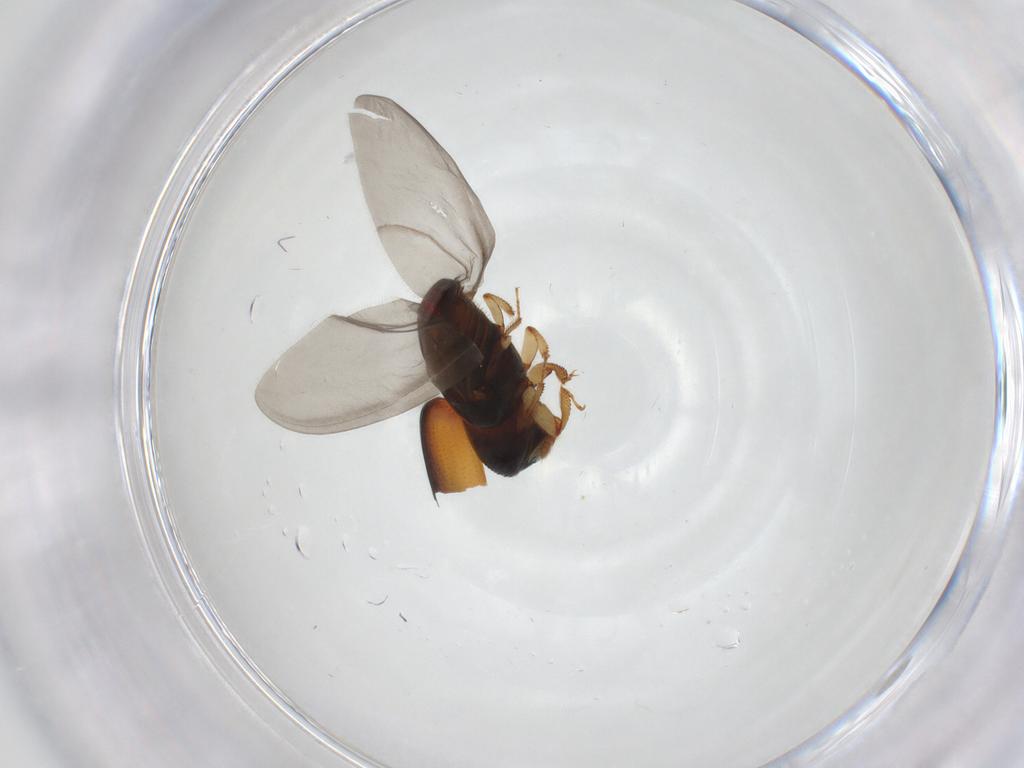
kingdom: Animalia
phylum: Arthropoda
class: Insecta
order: Coleoptera
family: Curculionidae
